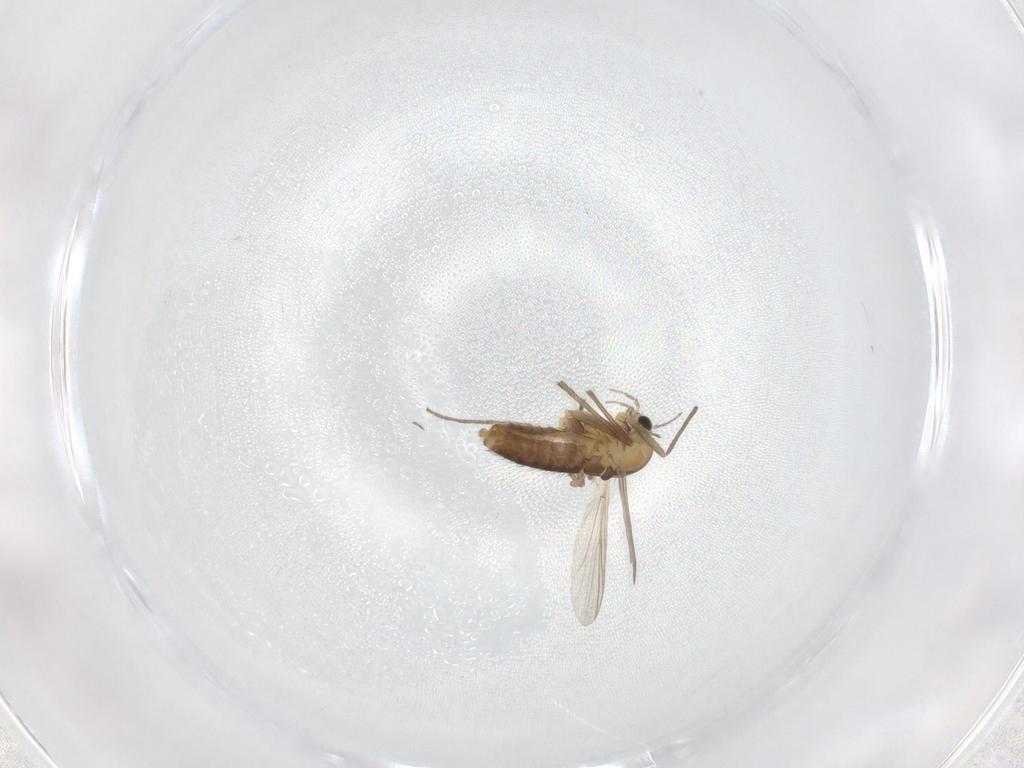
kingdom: Animalia
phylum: Arthropoda
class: Insecta
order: Diptera
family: Chironomidae
